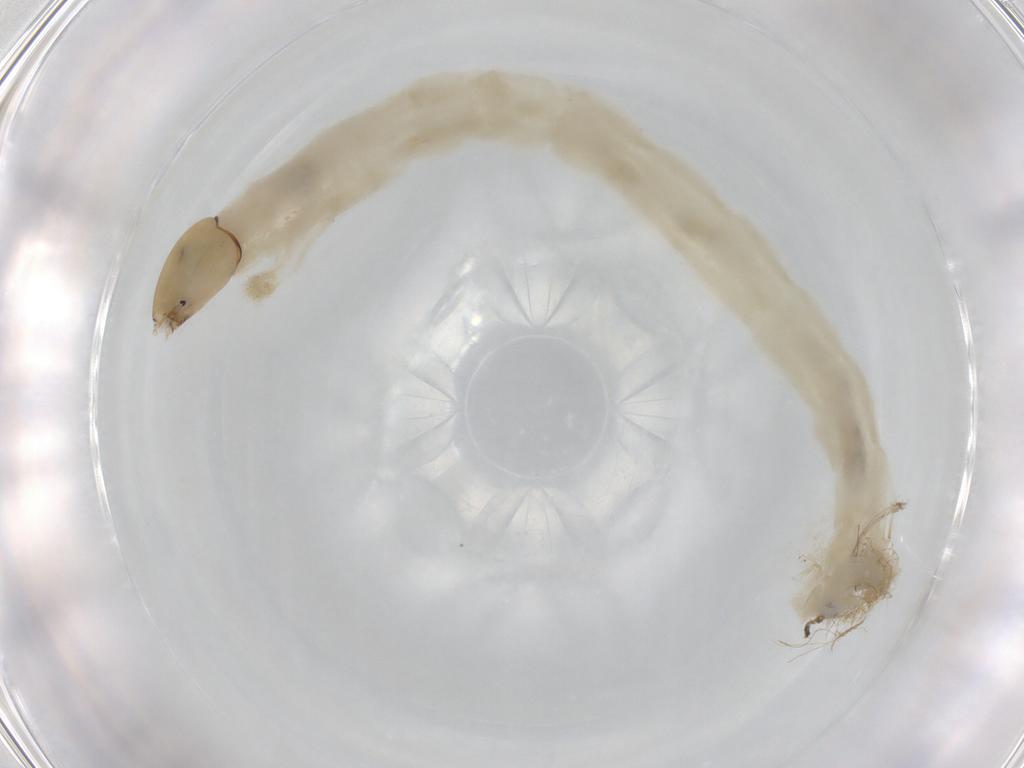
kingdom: Animalia
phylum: Arthropoda
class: Insecta
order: Diptera
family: Chironomidae
